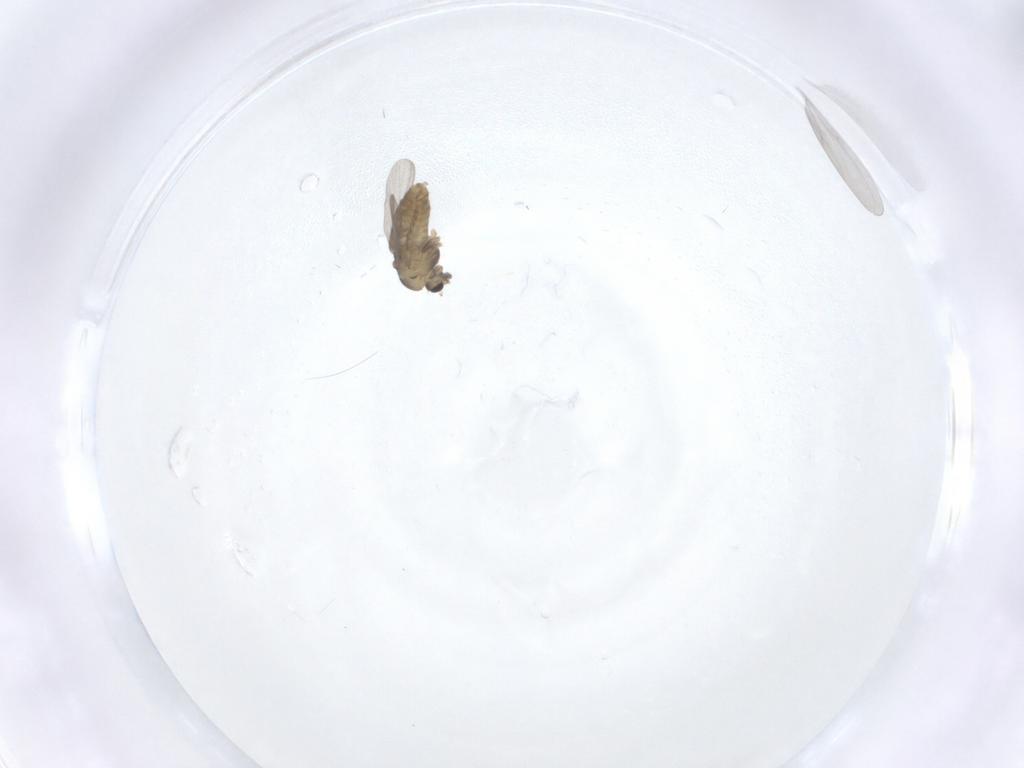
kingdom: Animalia
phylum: Arthropoda
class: Insecta
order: Diptera
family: Cecidomyiidae
